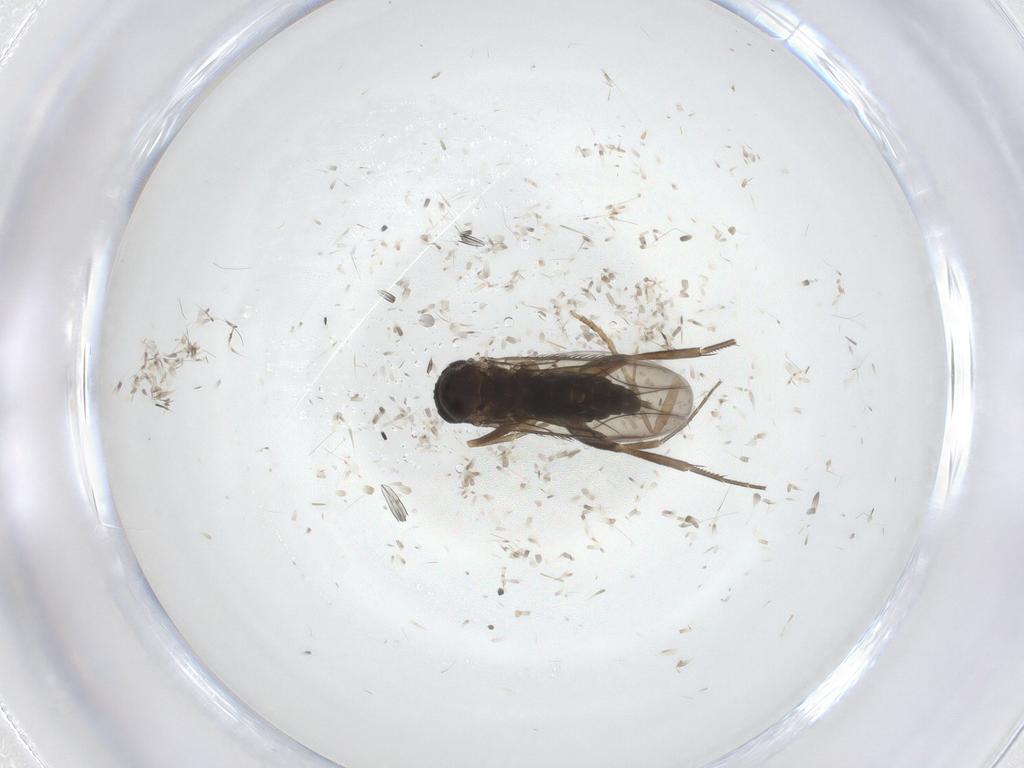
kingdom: Animalia
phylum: Arthropoda
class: Insecta
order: Diptera
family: Phoridae
